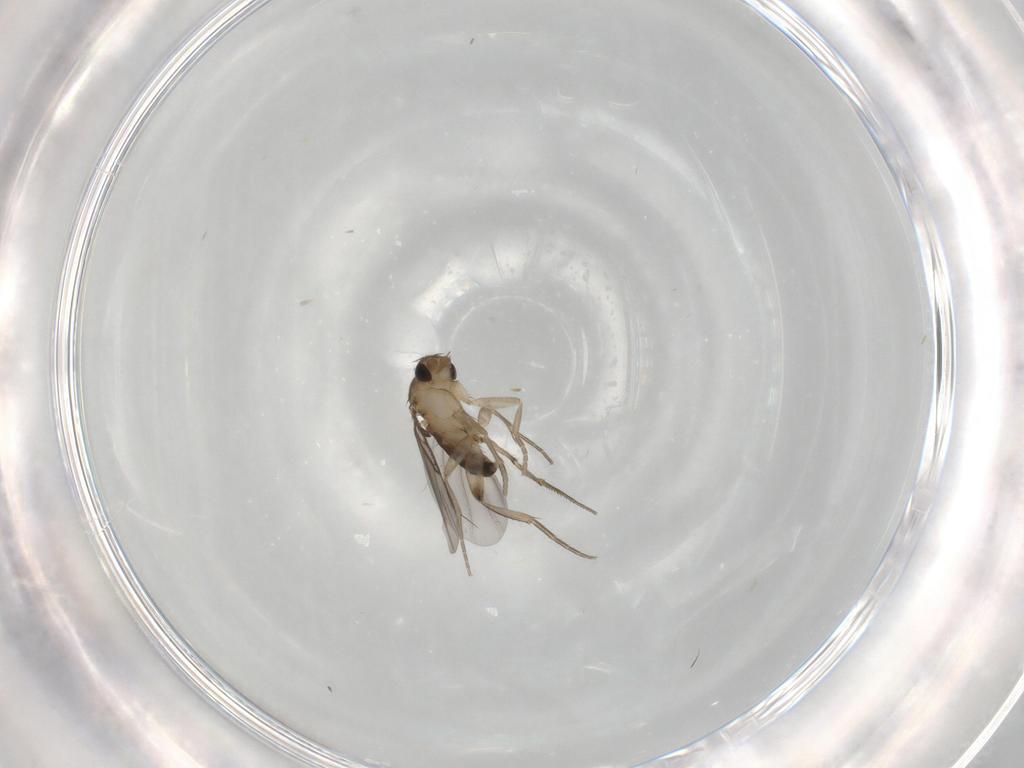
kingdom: Animalia
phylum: Arthropoda
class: Insecta
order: Diptera
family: Phoridae
